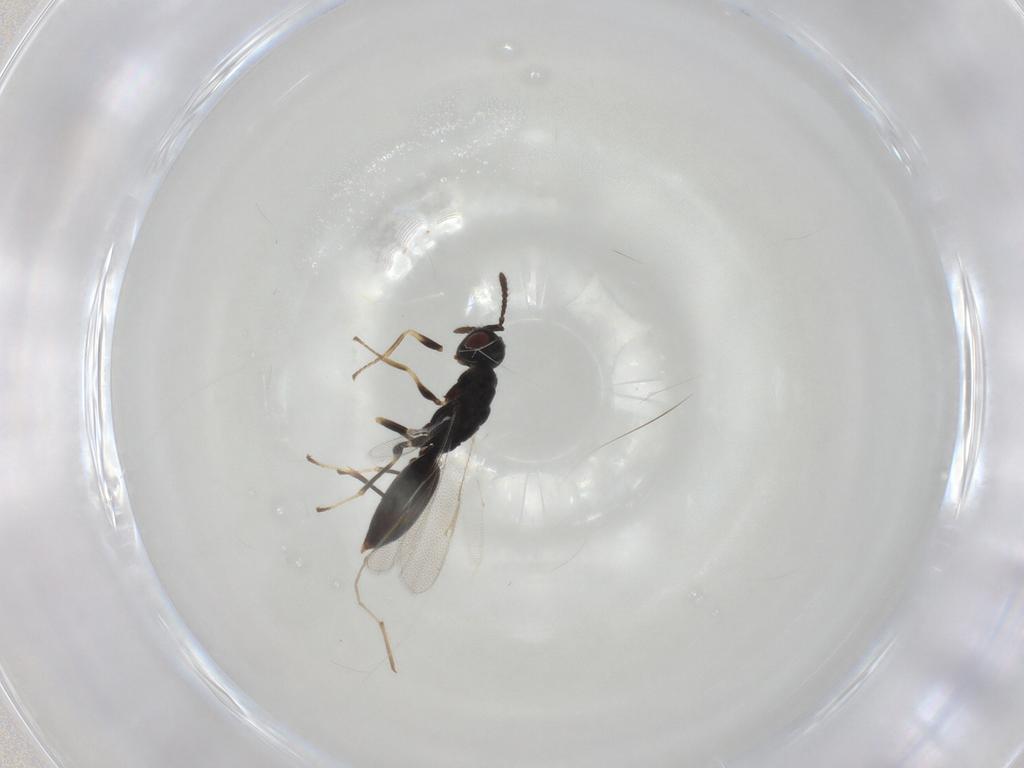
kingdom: Animalia
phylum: Arthropoda
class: Insecta
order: Hymenoptera
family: Eurytomidae
